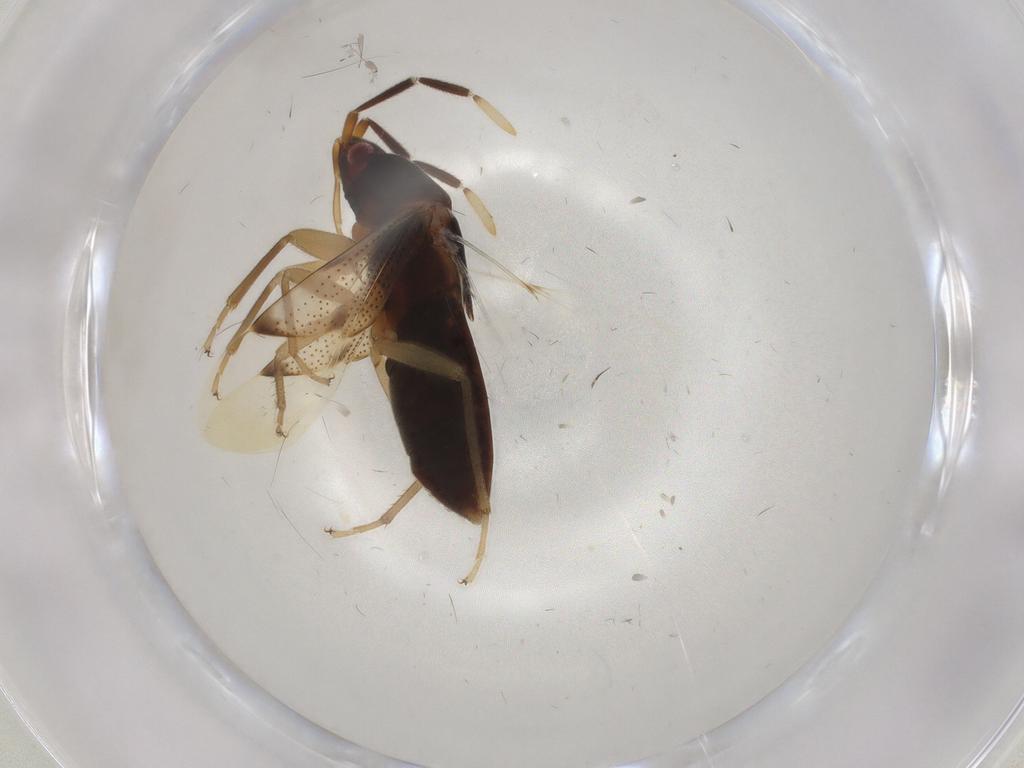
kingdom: Animalia
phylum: Arthropoda
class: Insecta
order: Hemiptera
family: Rhyparochromidae
